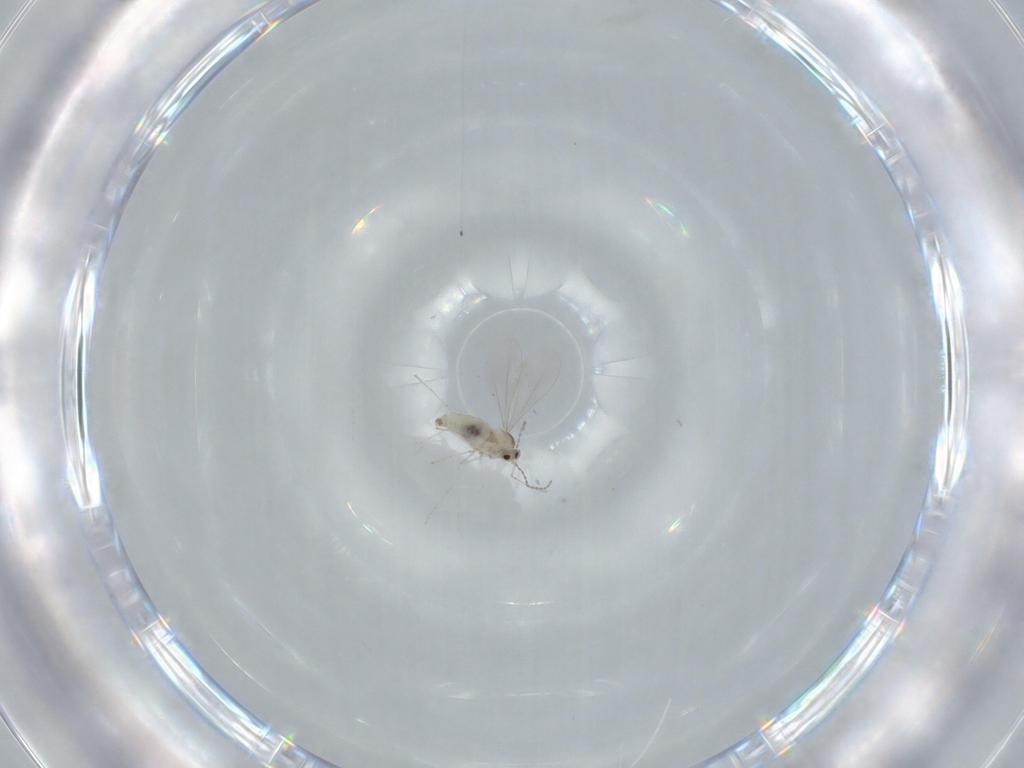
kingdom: Animalia
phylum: Arthropoda
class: Insecta
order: Diptera
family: Cecidomyiidae
